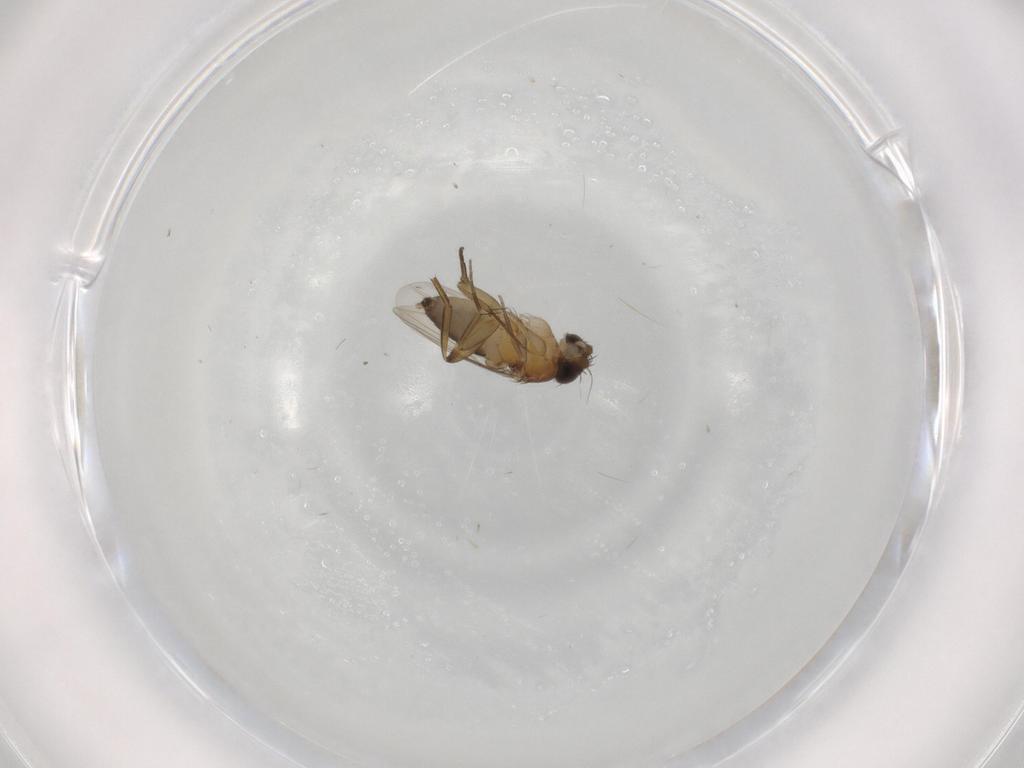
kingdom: Animalia
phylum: Arthropoda
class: Insecta
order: Diptera
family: Phoridae
